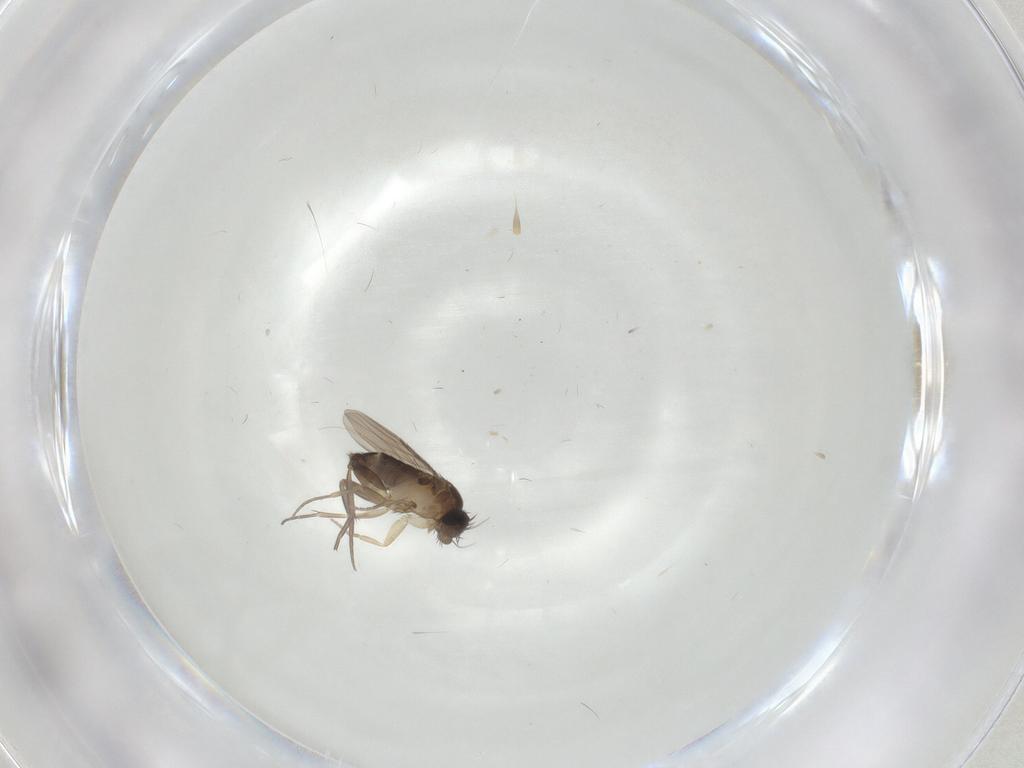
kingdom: Animalia
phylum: Arthropoda
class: Insecta
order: Diptera
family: Phoridae
